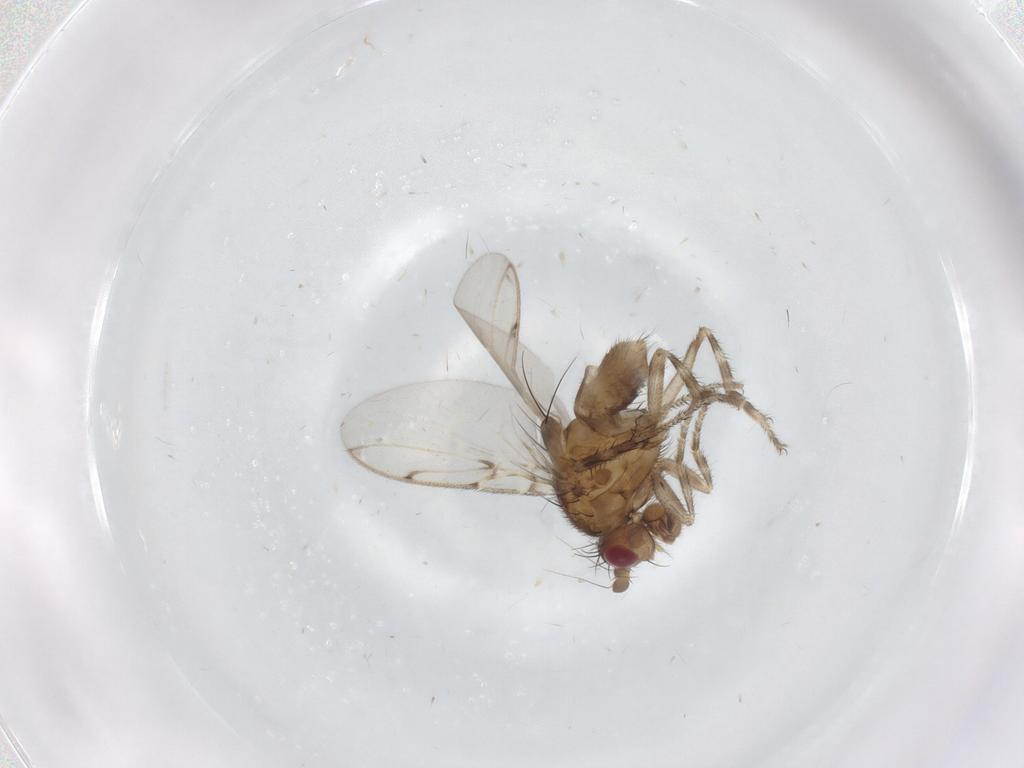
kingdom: Animalia
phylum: Arthropoda
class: Insecta
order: Diptera
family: Sphaeroceridae
